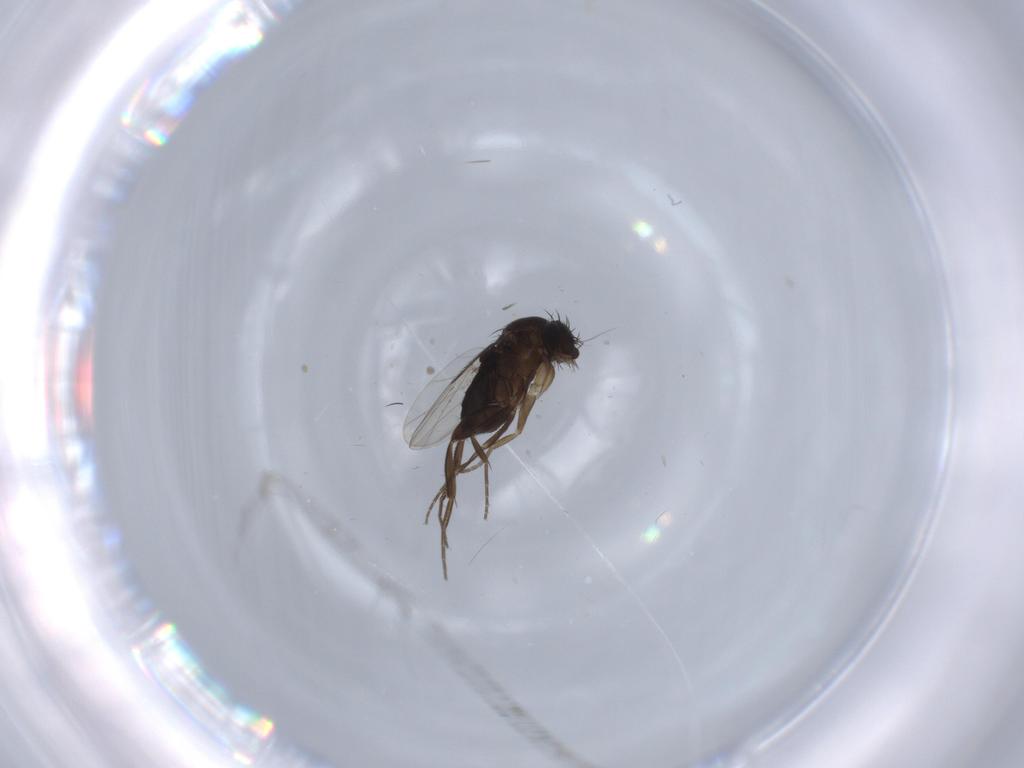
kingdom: Animalia
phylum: Arthropoda
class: Insecta
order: Diptera
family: Phoridae
